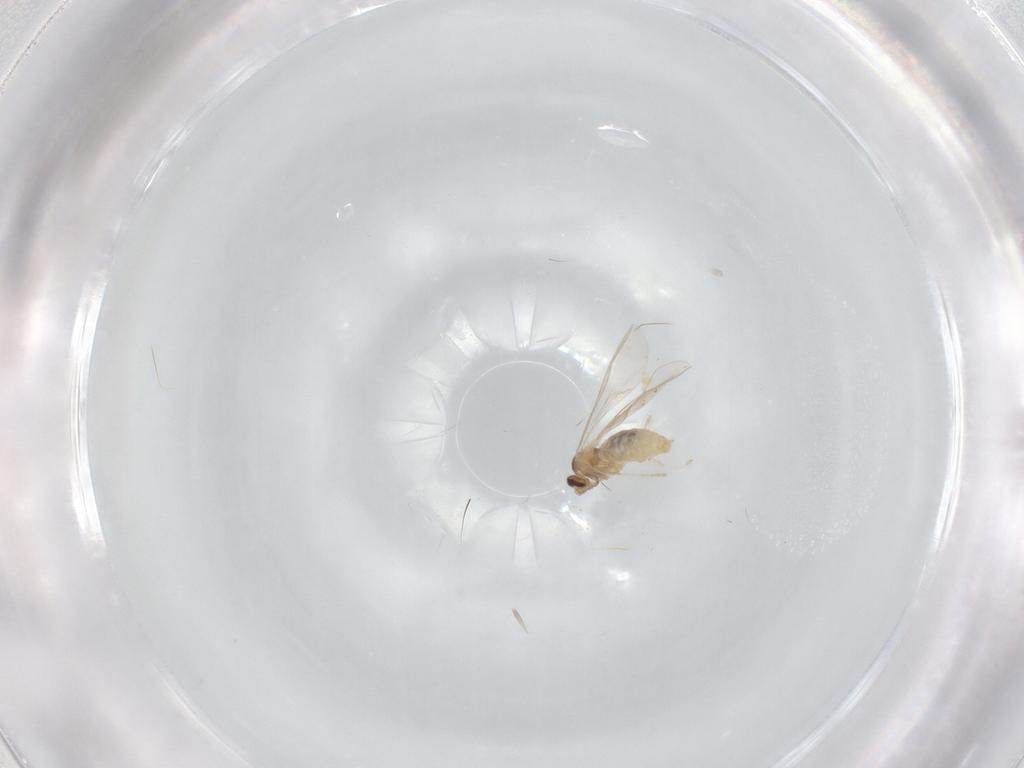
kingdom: Animalia
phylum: Arthropoda
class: Insecta
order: Diptera
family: Cecidomyiidae
